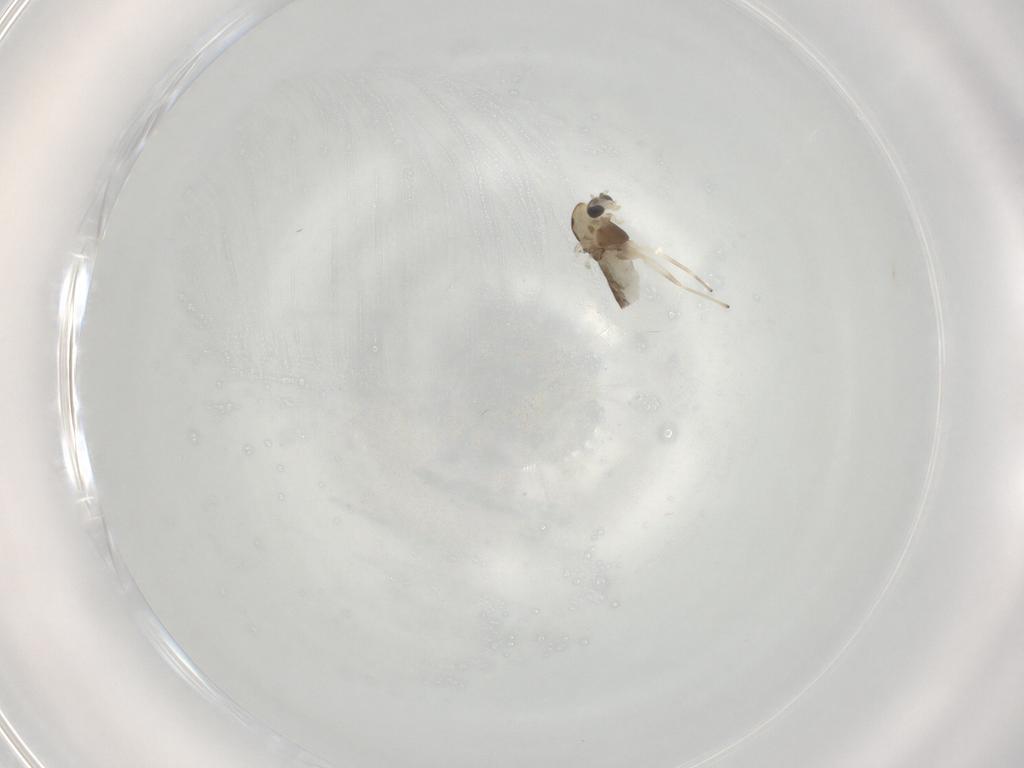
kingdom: Animalia
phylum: Arthropoda
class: Insecta
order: Diptera
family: Chironomidae
